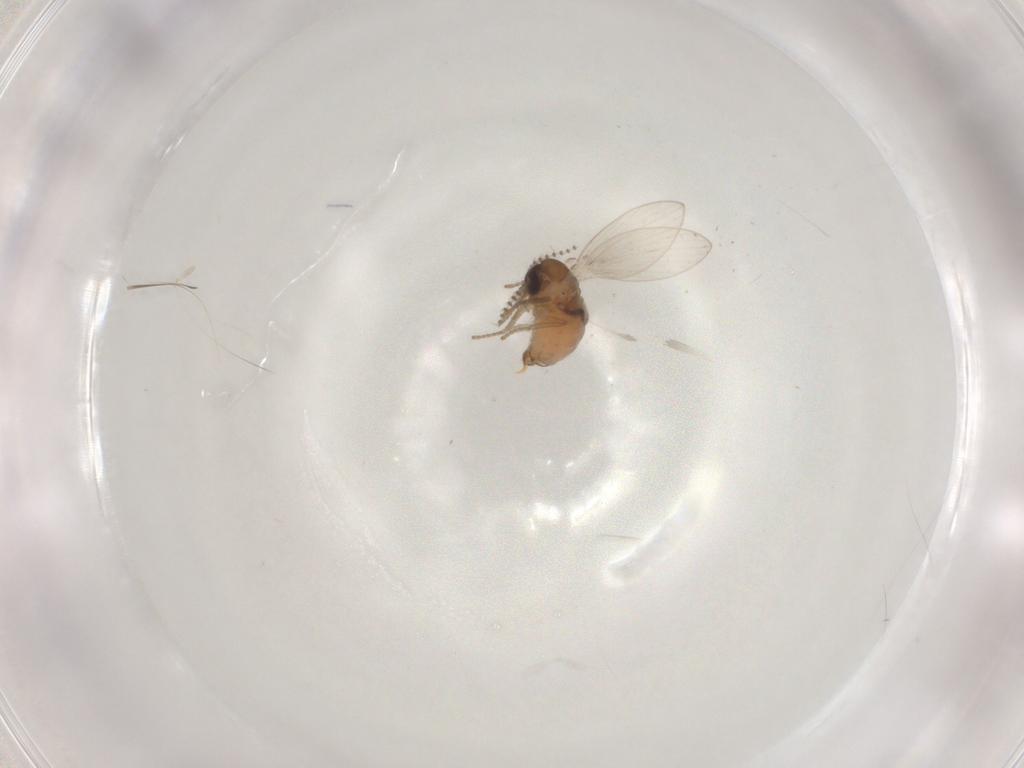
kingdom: Animalia
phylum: Arthropoda
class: Insecta
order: Diptera
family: Psychodidae
